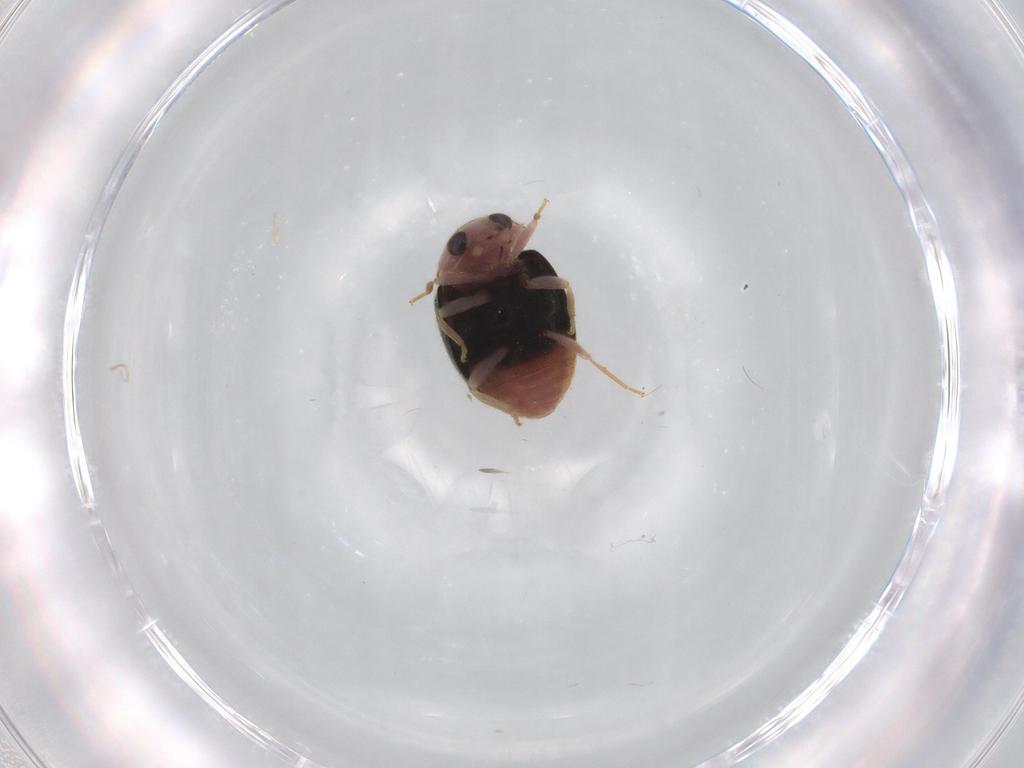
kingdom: Animalia
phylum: Arthropoda
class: Insecta
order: Coleoptera
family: Coccinellidae
